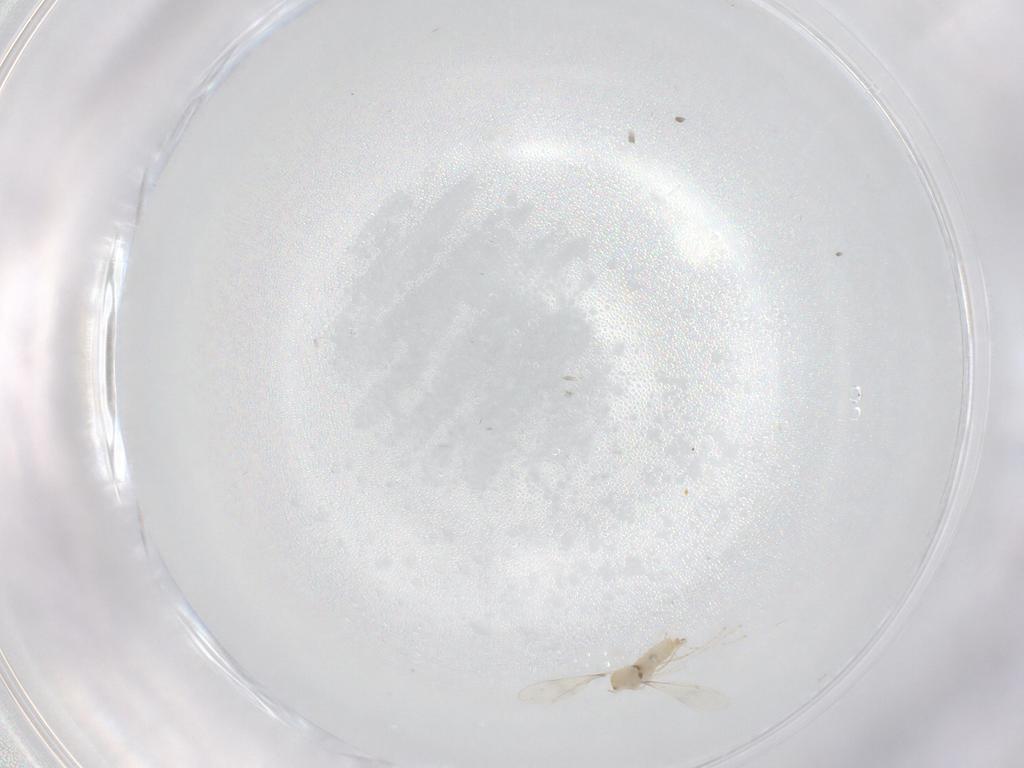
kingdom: Animalia
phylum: Arthropoda
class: Insecta
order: Diptera
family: Cecidomyiidae
